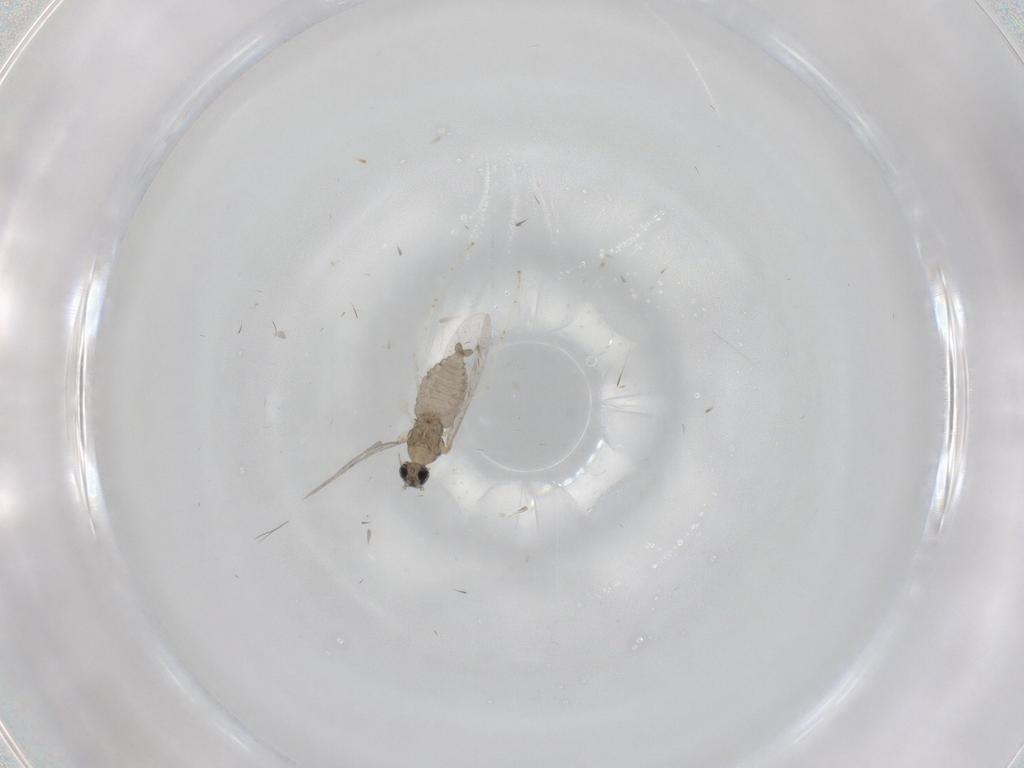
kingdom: Animalia
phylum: Arthropoda
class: Insecta
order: Diptera
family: Cecidomyiidae
